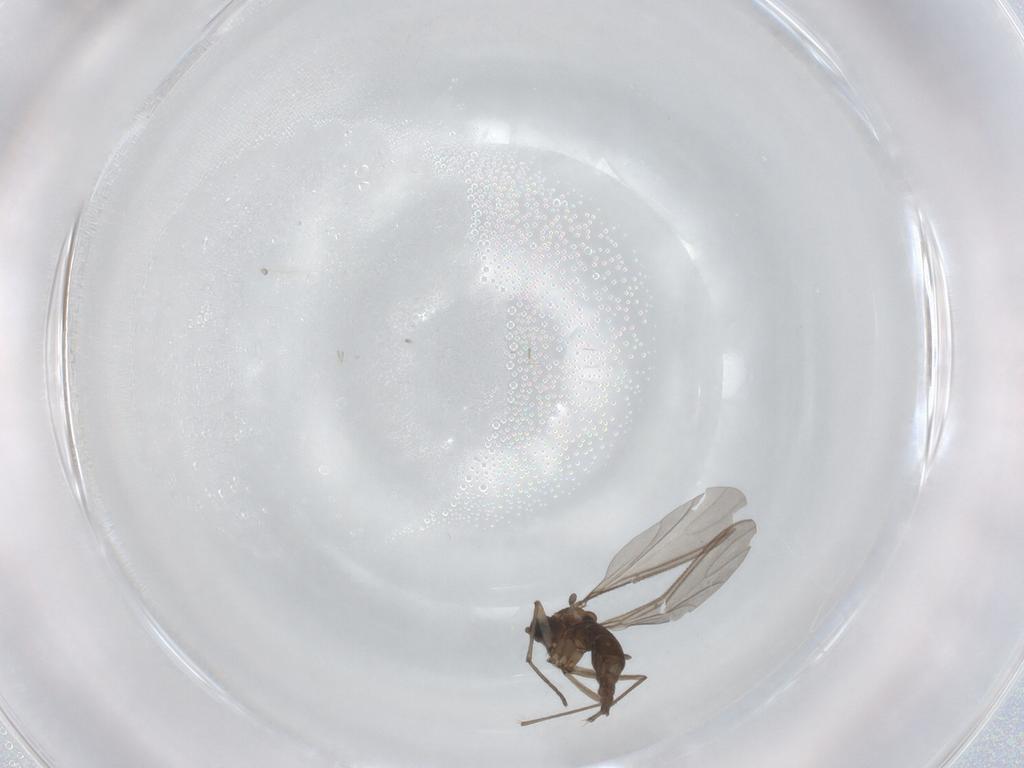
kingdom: Animalia
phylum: Arthropoda
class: Insecta
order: Diptera
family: Sciaridae
